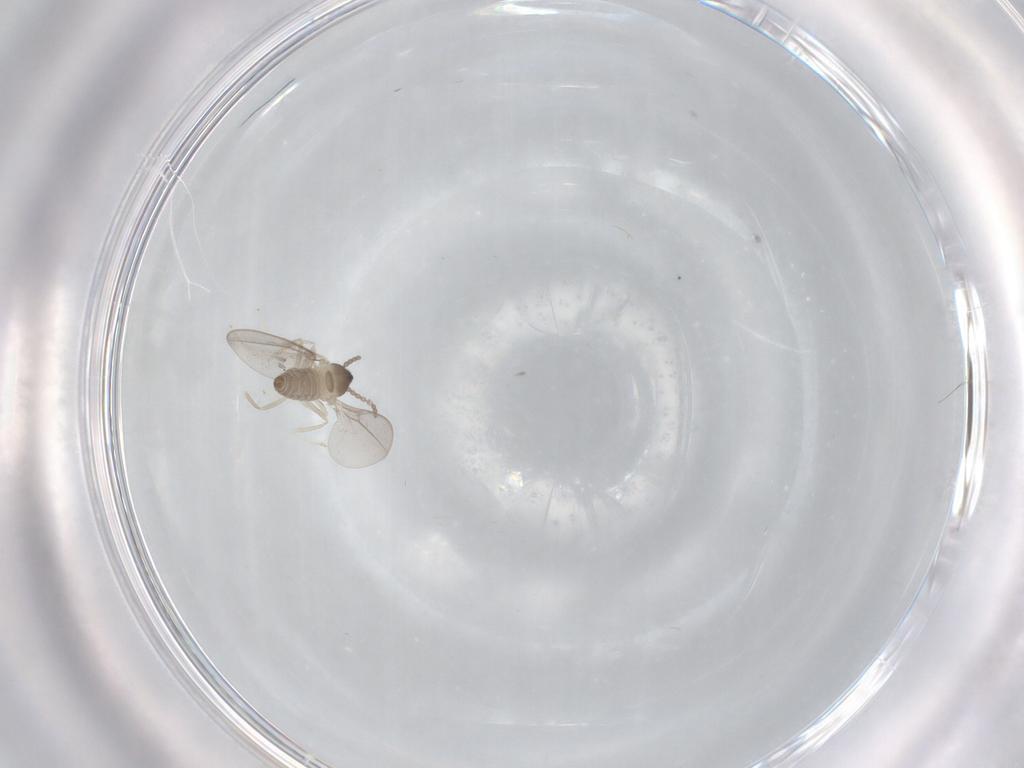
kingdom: Animalia
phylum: Arthropoda
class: Insecta
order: Diptera
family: Cecidomyiidae
